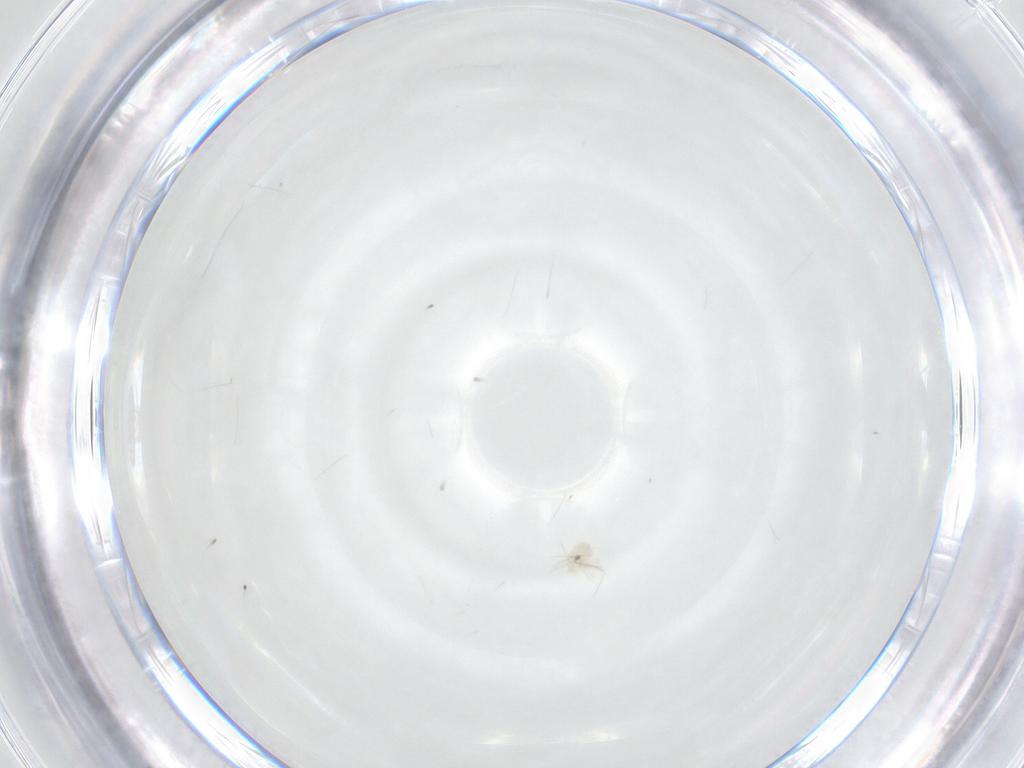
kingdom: Animalia
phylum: Arthropoda
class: Arachnida
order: Trombidiformes
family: Anystidae
